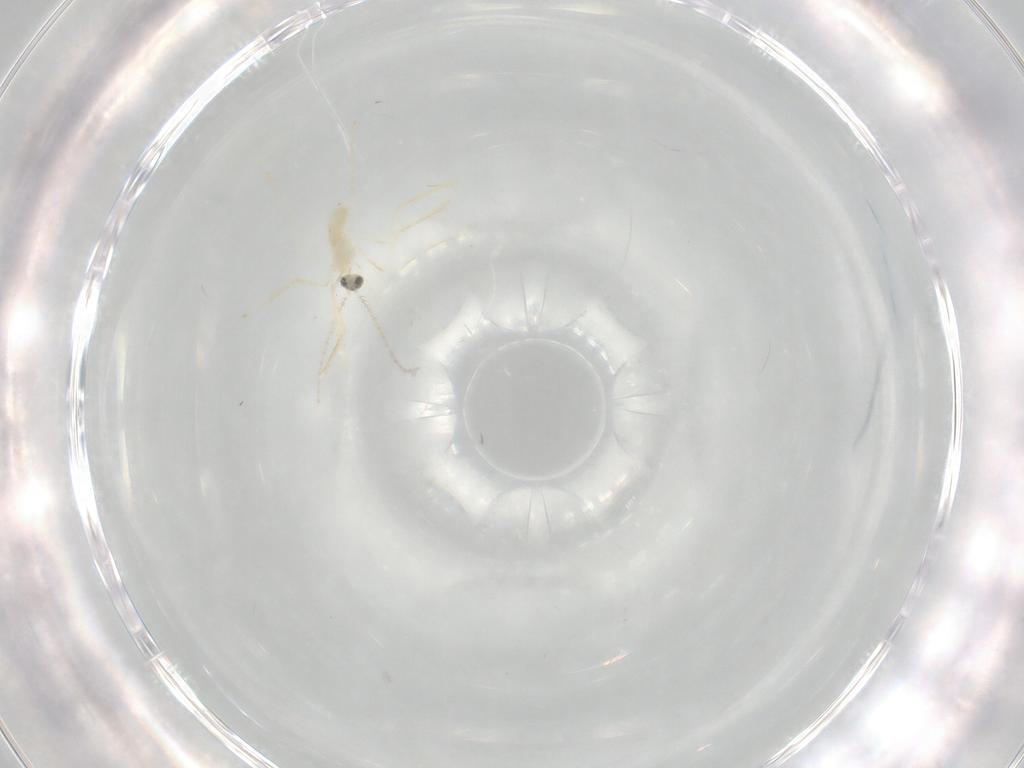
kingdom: Animalia
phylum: Arthropoda
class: Insecta
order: Diptera
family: Cecidomyiidae
